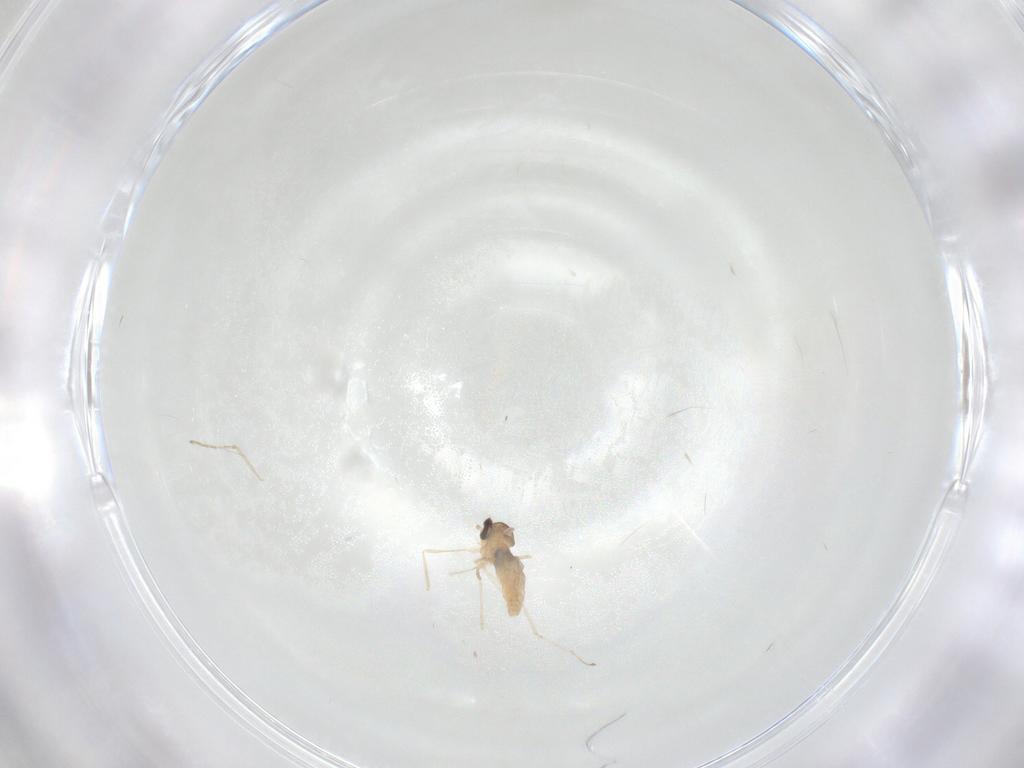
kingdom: Animalia
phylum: Arthropoda
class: Insecta
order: Diptera
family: Cecidomyiidae
